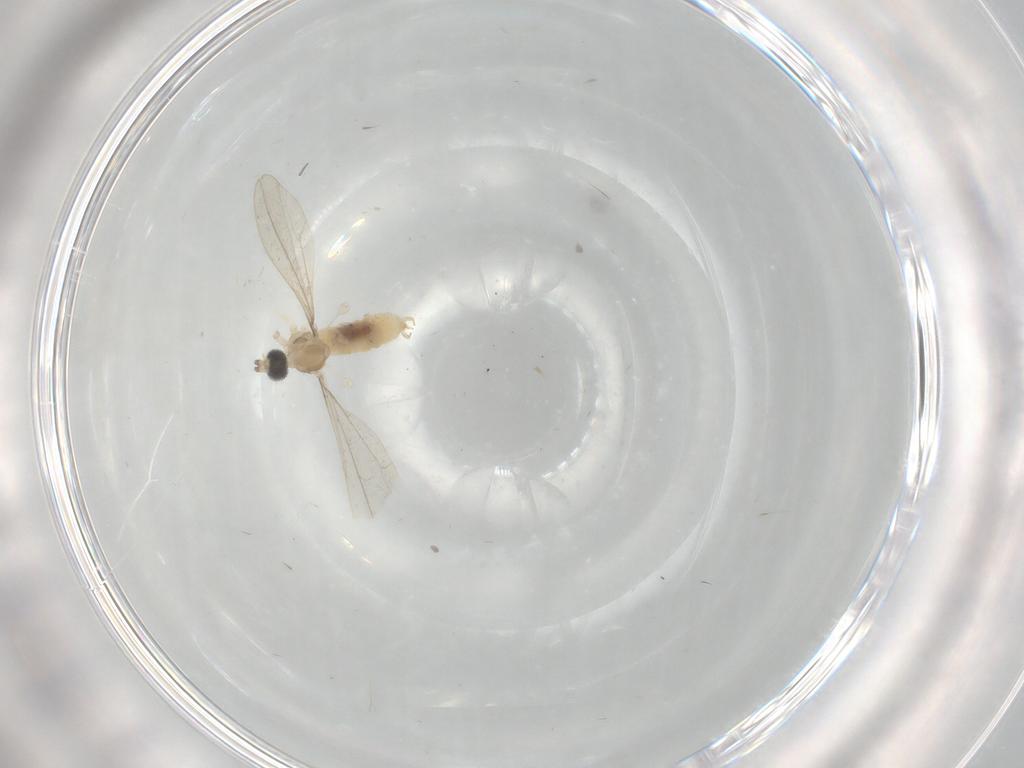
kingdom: Animalia
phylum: Arthropoda
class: Insecta
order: Diptera
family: Cecidomyiidae
